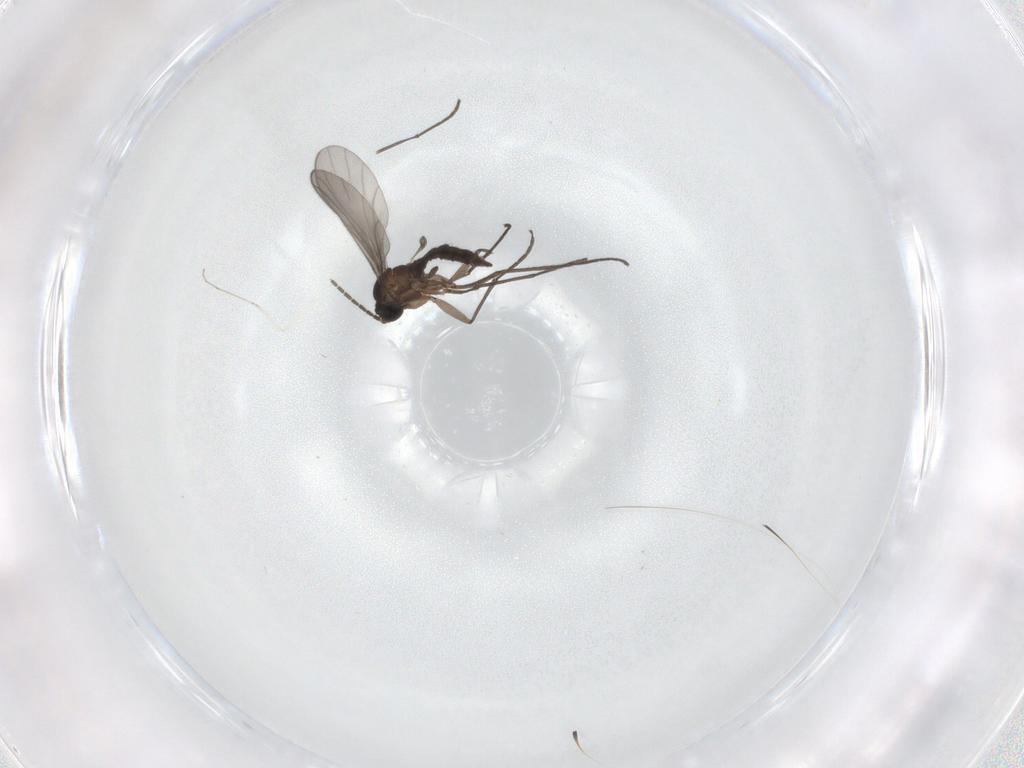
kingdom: Animalia
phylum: Arthropoda
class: Insecta
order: Diptera
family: Sciaridae
